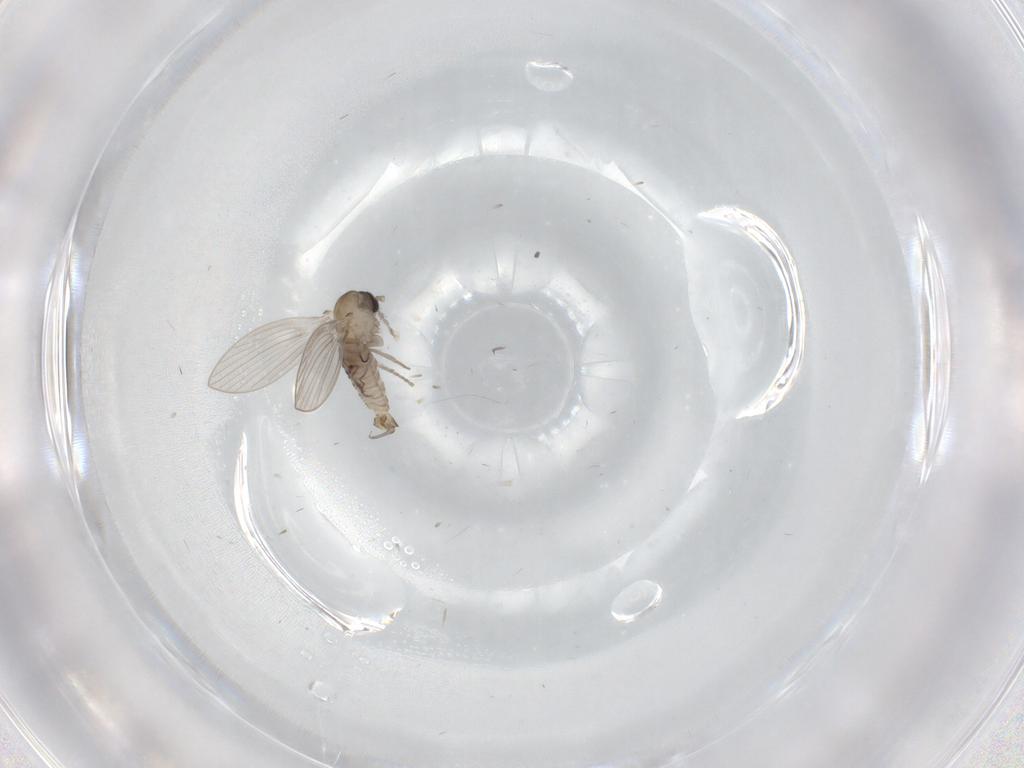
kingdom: Animalia
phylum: Arthropoda
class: Insecta
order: Diptera
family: Psychodidae
